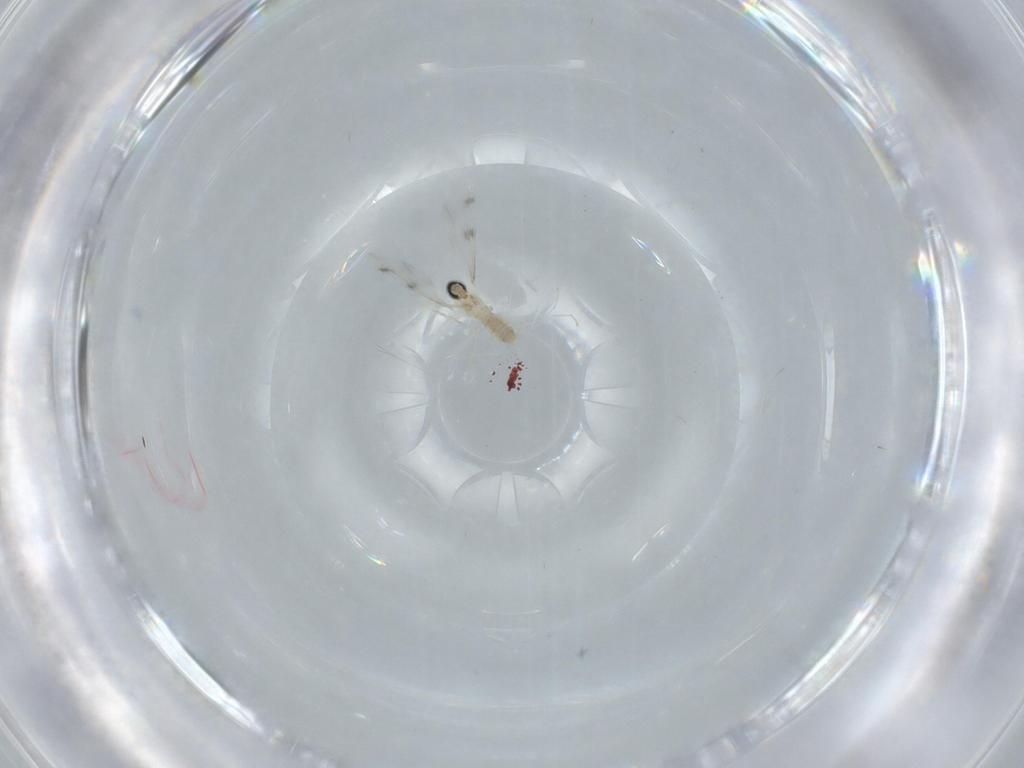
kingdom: Animalia
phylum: Arthropoda
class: Insecta
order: Diptera
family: Cecidomyiidae
